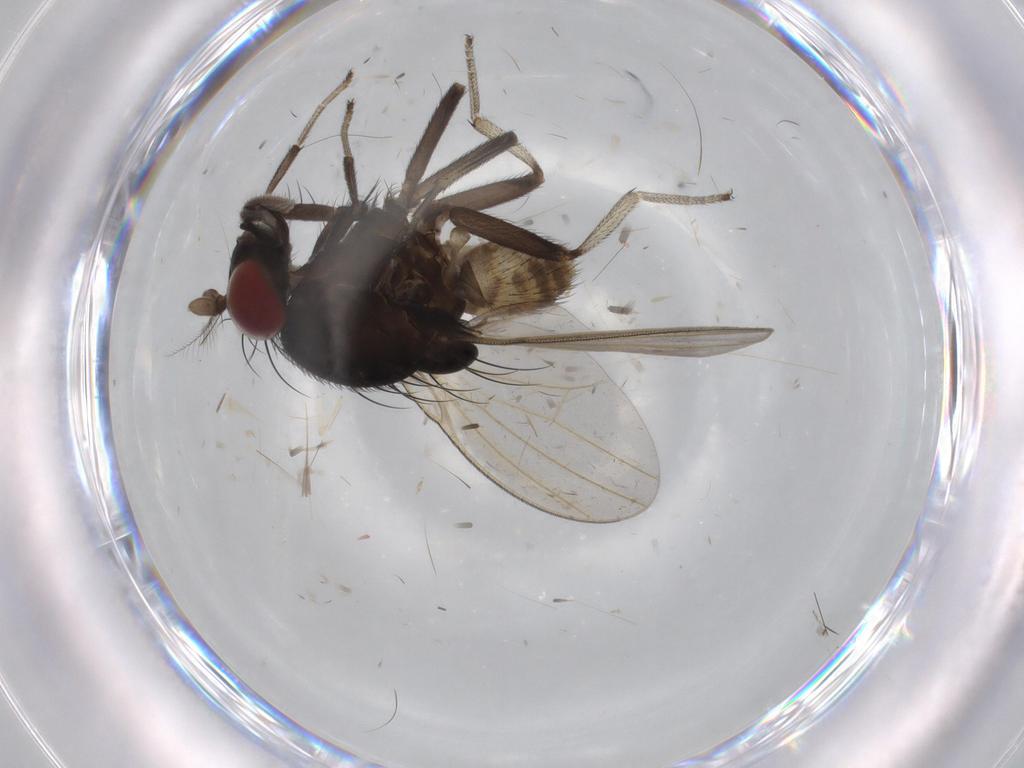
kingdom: Animalia
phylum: Arthropoda
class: Insecta
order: Diptera
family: Chironomidae
